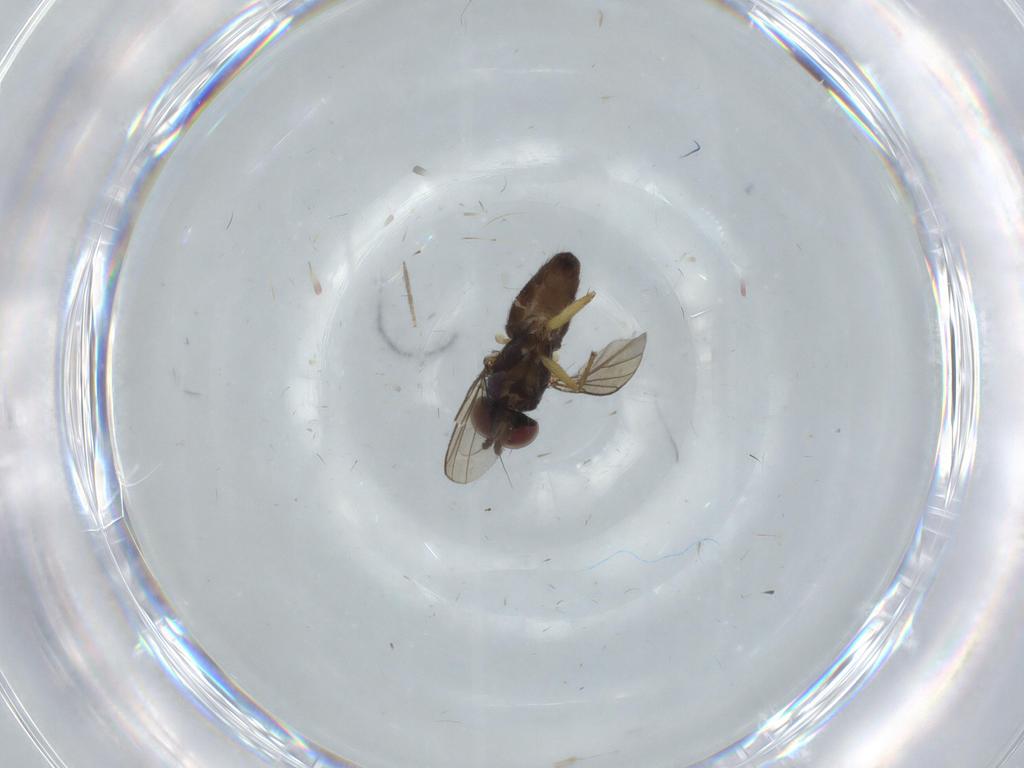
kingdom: Animalia
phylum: Arthropoda
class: Insecta
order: Diptera
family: Dolichopodidae
